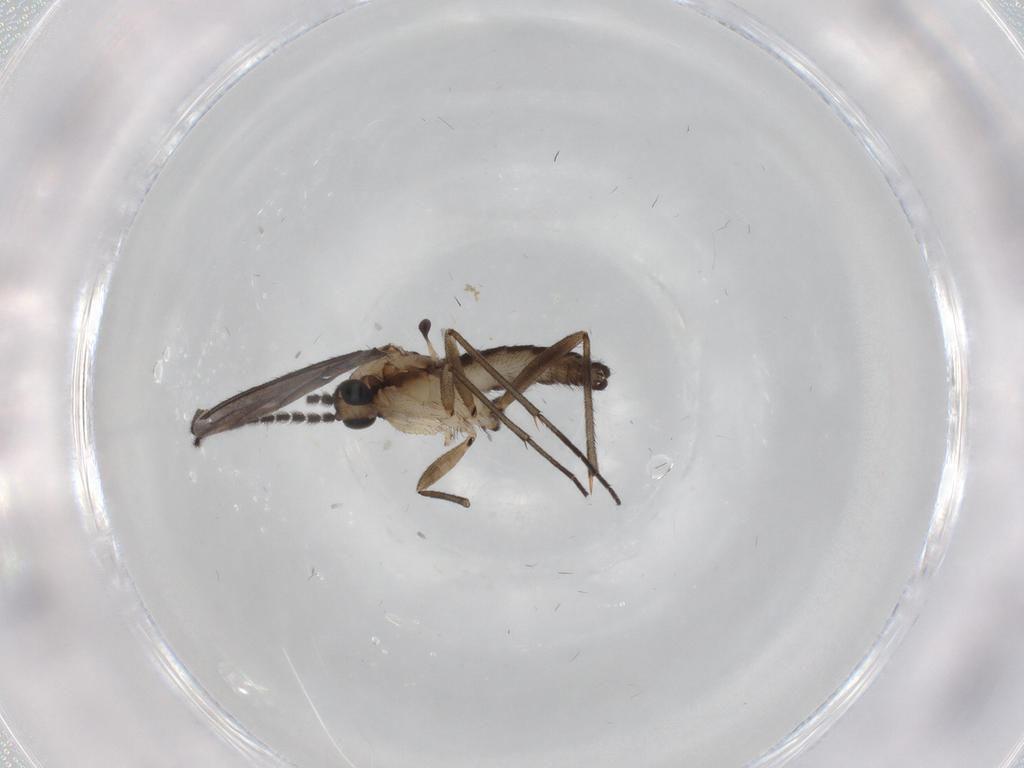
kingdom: Animalia
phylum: Arthropoda
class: Insecta
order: Diptera
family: Sciaridae
